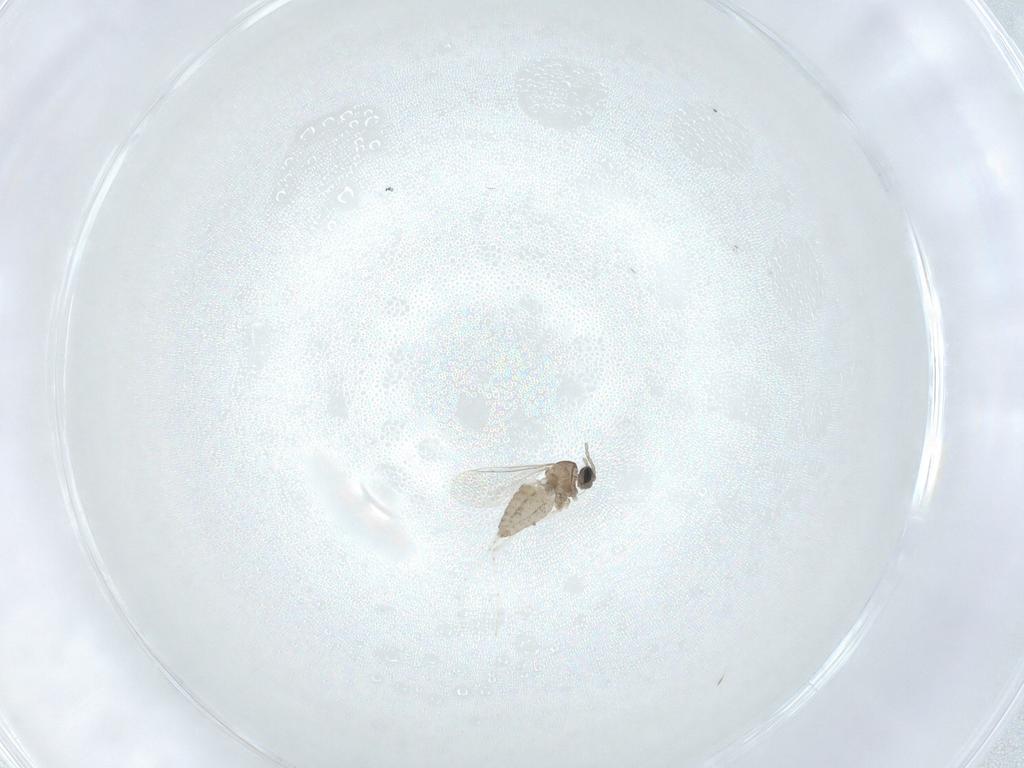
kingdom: Animalia
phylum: Arthropoda
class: Insecta
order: Diptera
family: Cecidomyiidae
